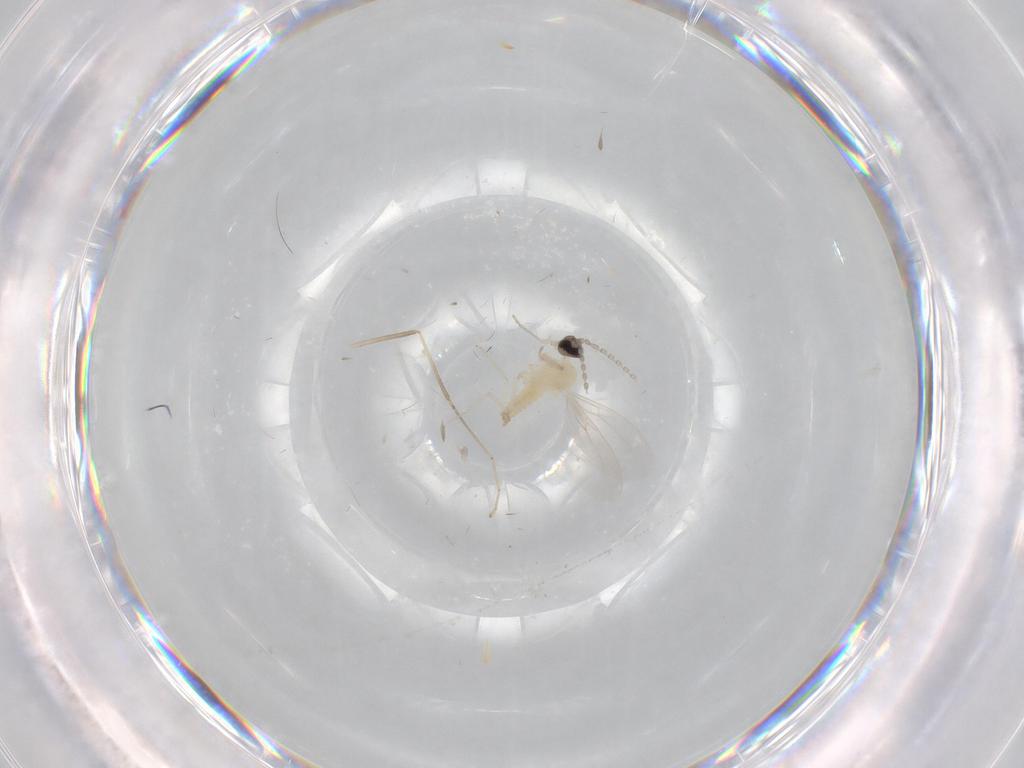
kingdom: Animalia
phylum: Arthropoda
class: Insecta
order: Diptera
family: Cecidomyiidae
